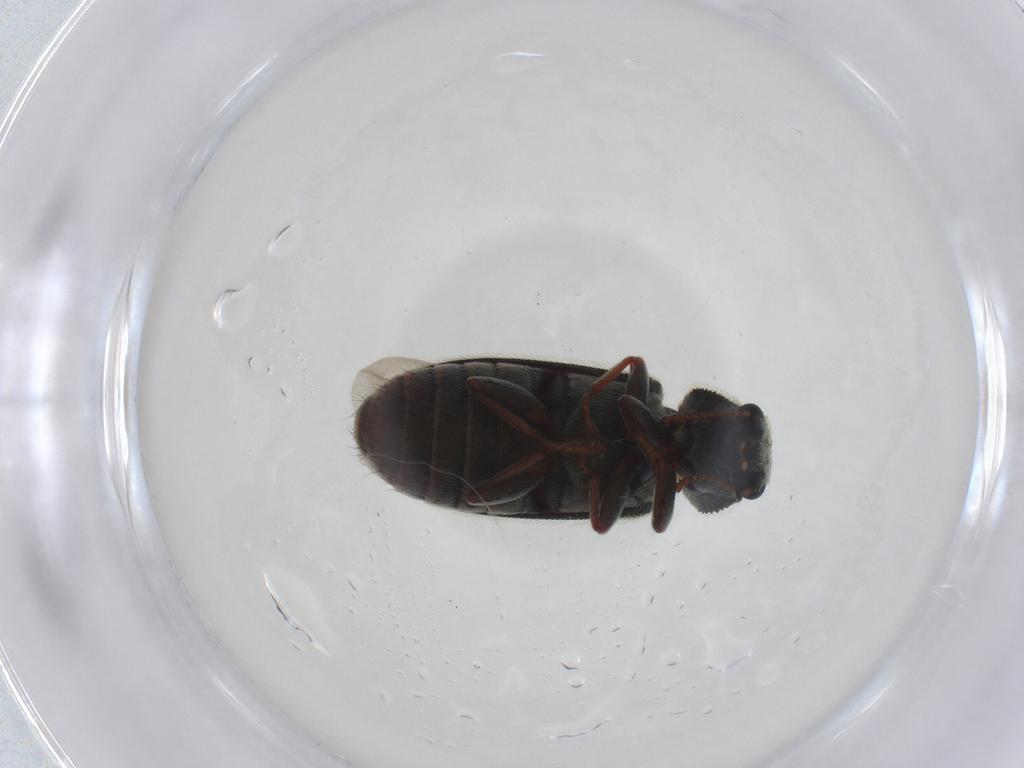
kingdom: Animalia
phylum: Arthropoda
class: Insecta
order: Coleoptera
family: Melyridae
